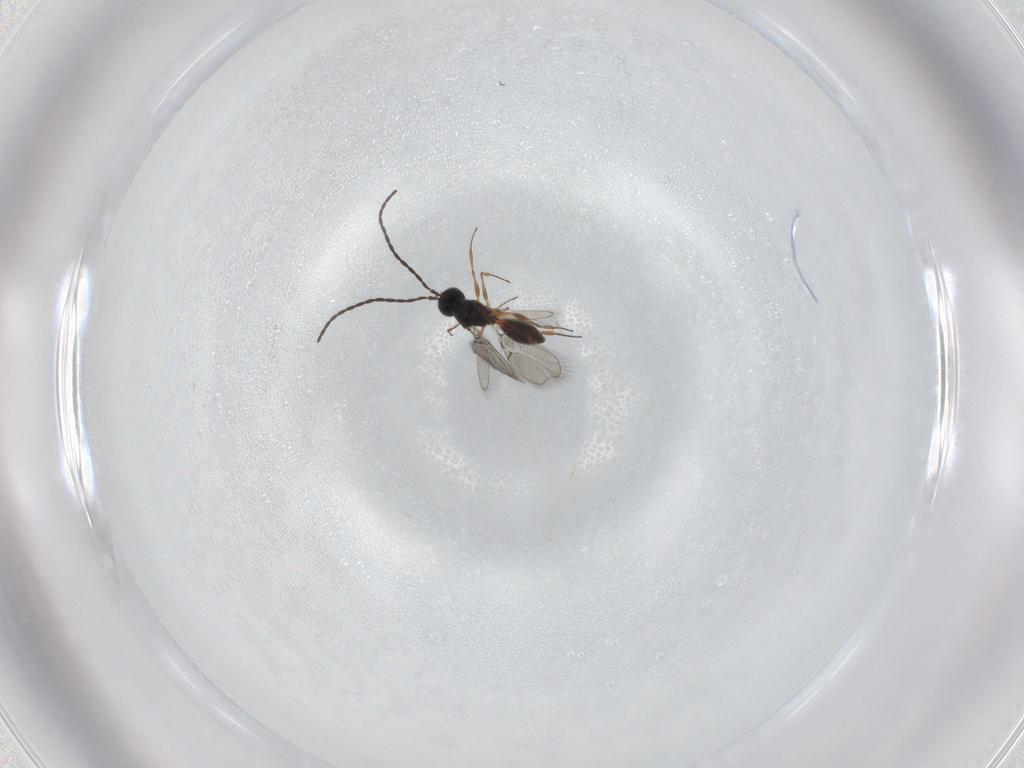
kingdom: Animalia
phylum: Arthropoda
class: Insecta
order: Hymenoptera
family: Figitidae
